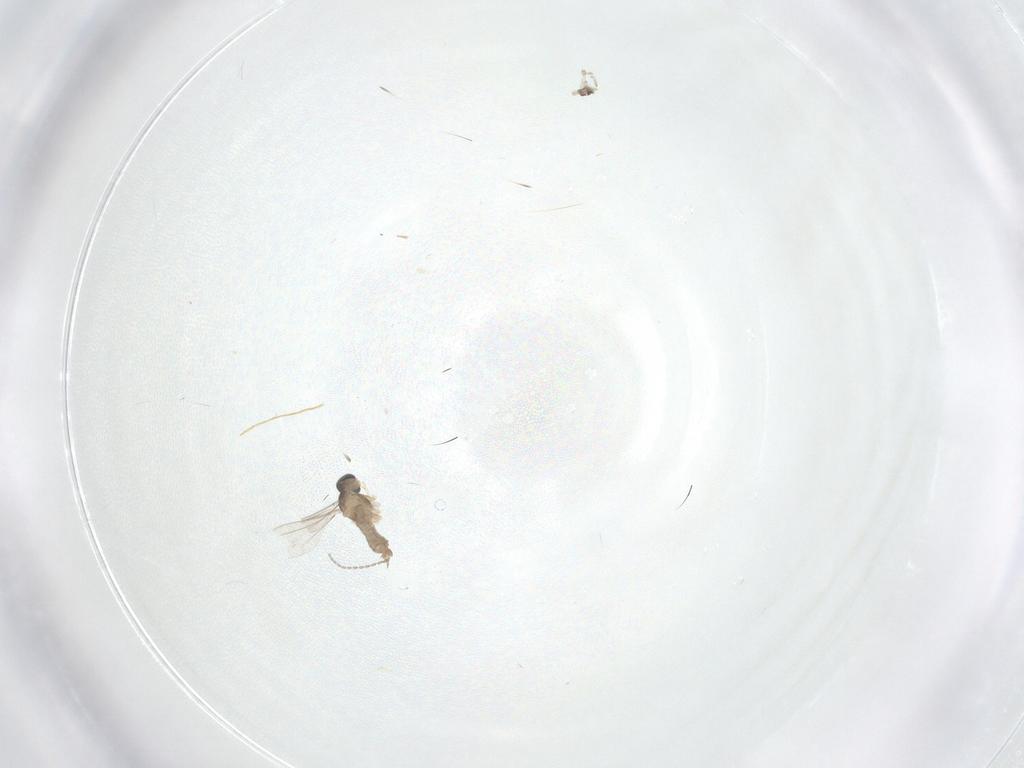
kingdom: Animalia
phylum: Arthropoda
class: Insecta
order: Diptera
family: Cecidomyiidae
